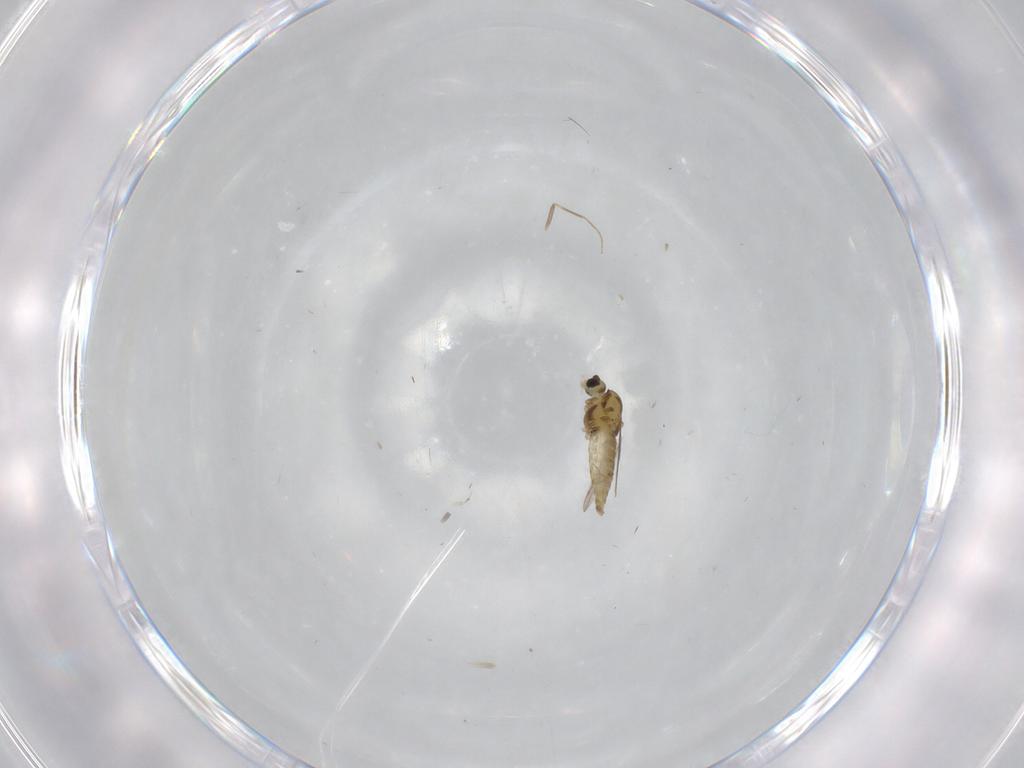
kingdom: Animalia
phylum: Arthropoda
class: Insecta
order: Diptera
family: Chironomidae
